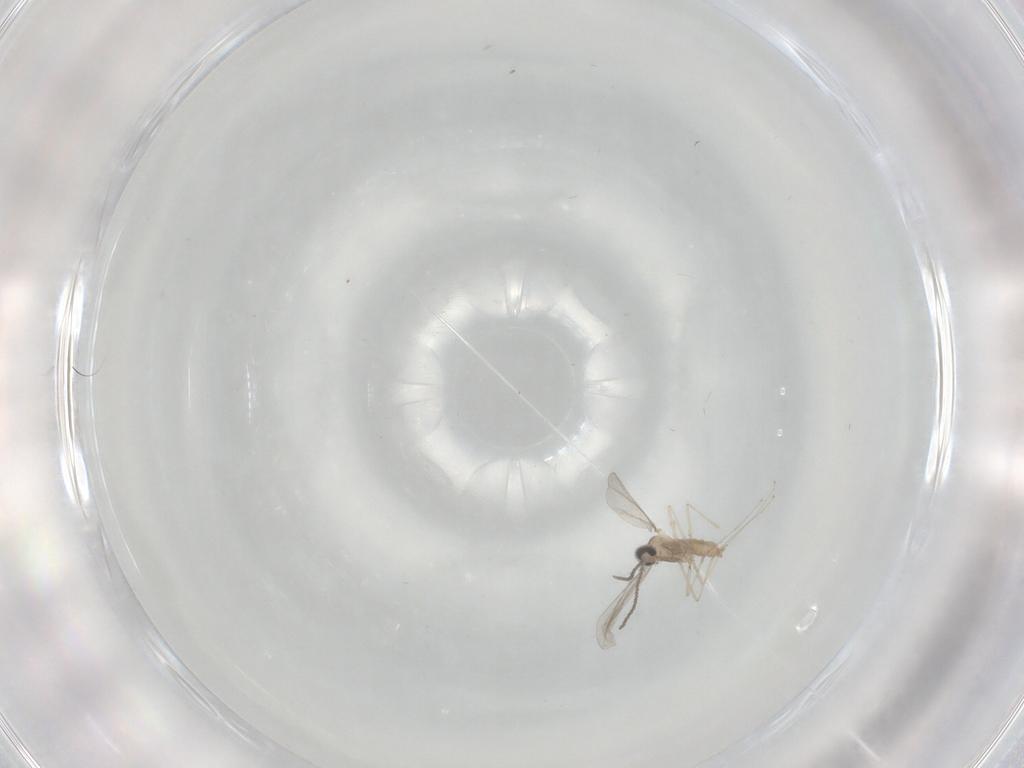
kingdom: Animalia
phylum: Arthropoda
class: Insecta
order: Diptera
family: Cecidomyiidae
